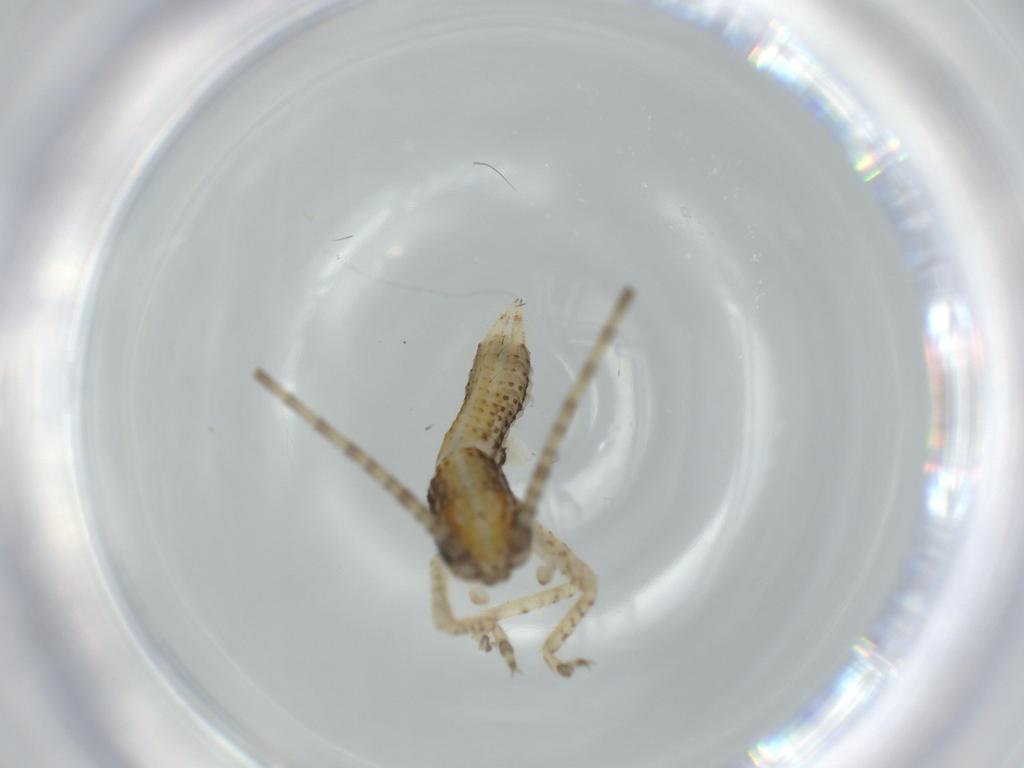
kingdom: Animalia
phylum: Arthropoda
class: Insecta
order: Orthoptera
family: Gryllidae
